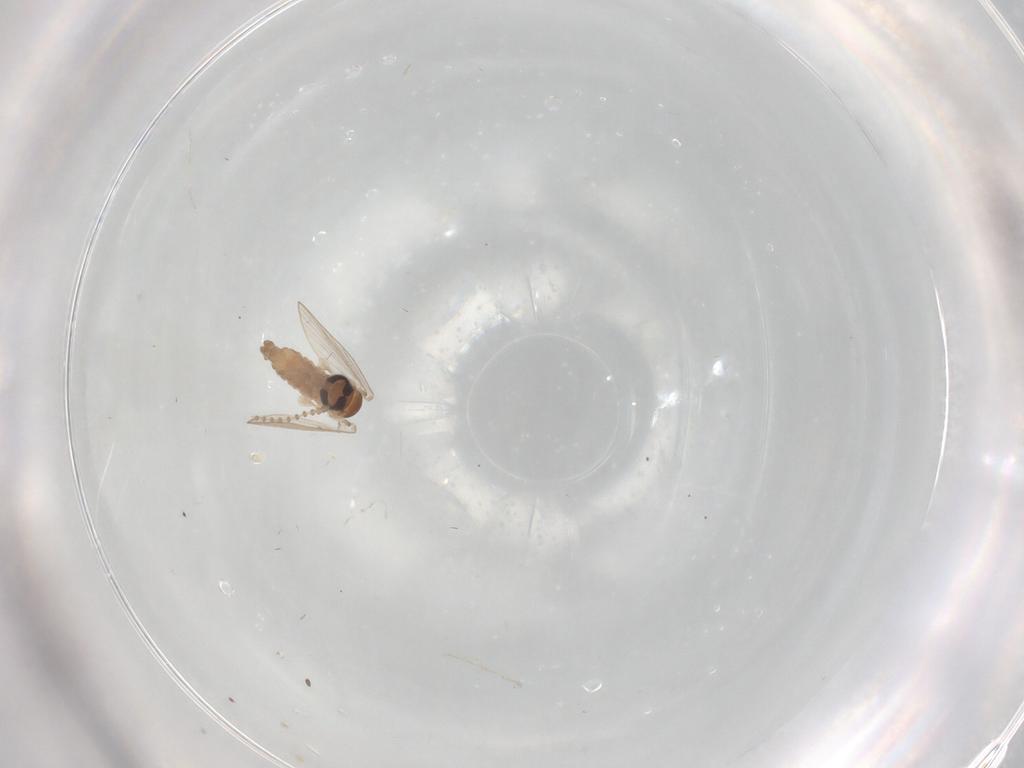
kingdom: Animalia
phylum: Arthropoda
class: Insecta
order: Diptera
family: Psychodidae
